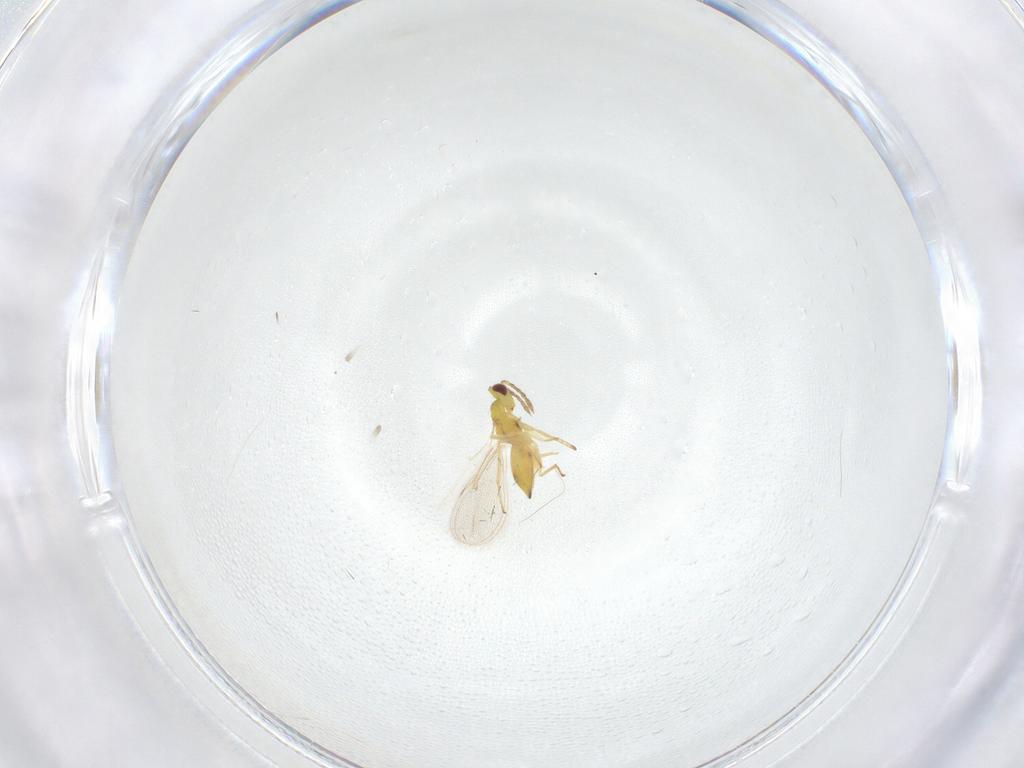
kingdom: Animalia
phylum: Arthropoda
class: Insecta
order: Hymenoptera
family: Eulophidae
